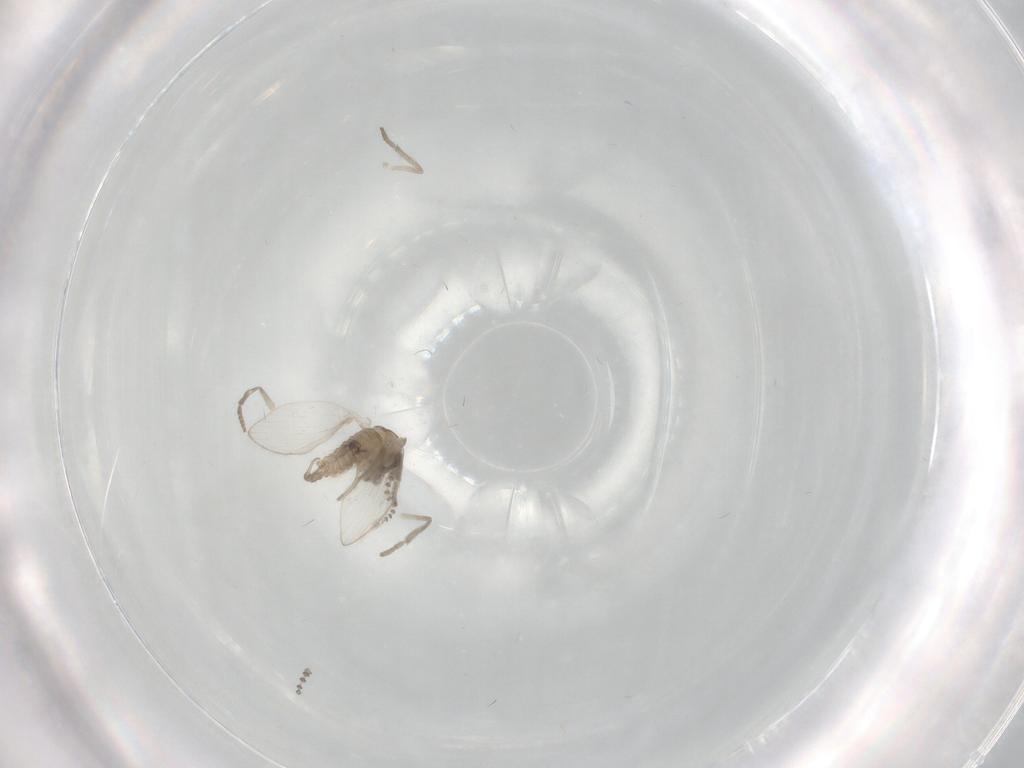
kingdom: Animalia
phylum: Arthropoda
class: Insecta
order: Diptera
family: Psychodidae
